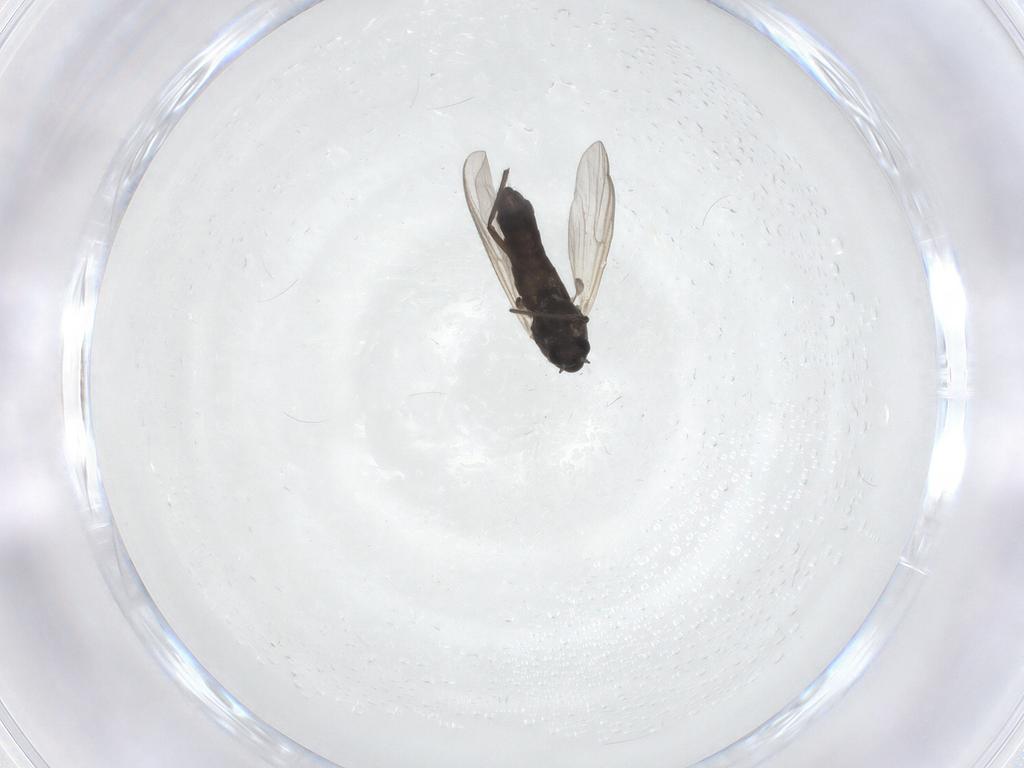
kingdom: Animalia
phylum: Arthropoda
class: Insecta
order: Diptera
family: Chironomidae
